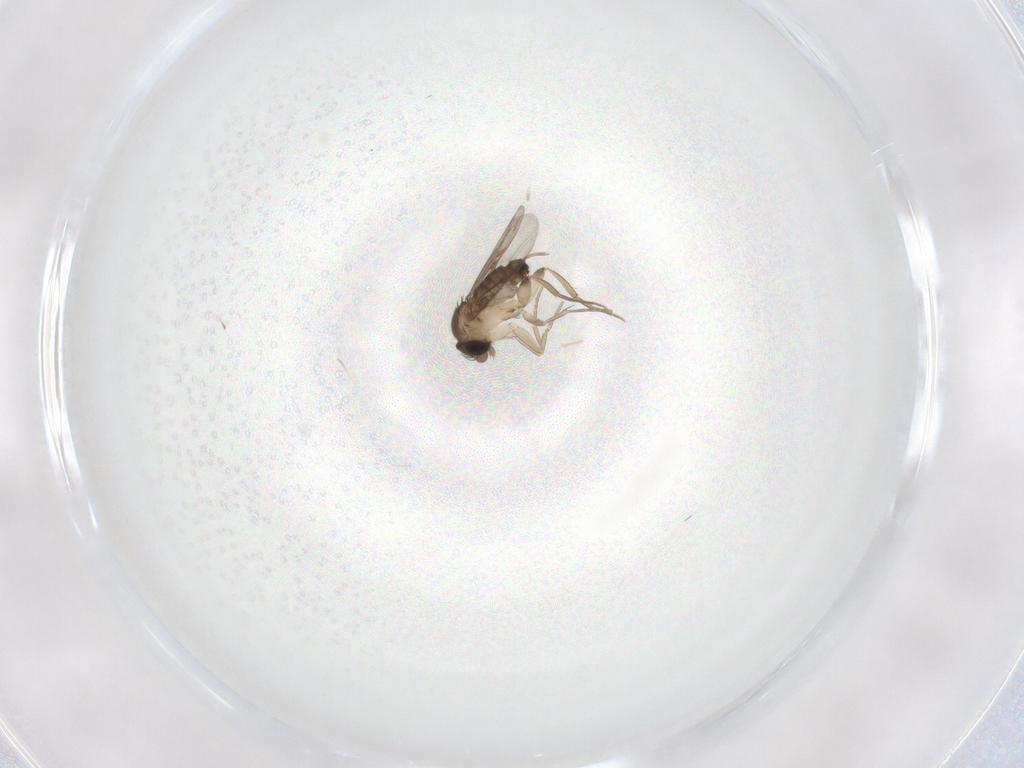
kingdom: Animalia
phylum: Arthropoda
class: Insecta
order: Diptera
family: Phoridae
